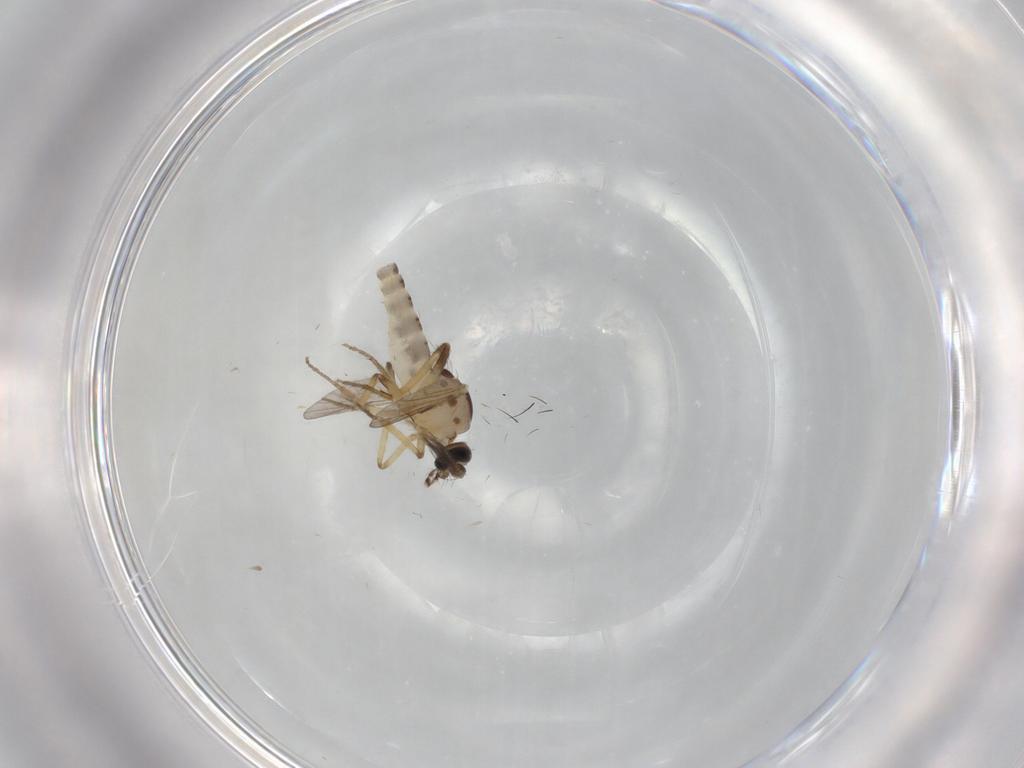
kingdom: Animalia
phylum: Arthropoda
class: Insecta
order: Diptera
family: Ceratopogonidae
